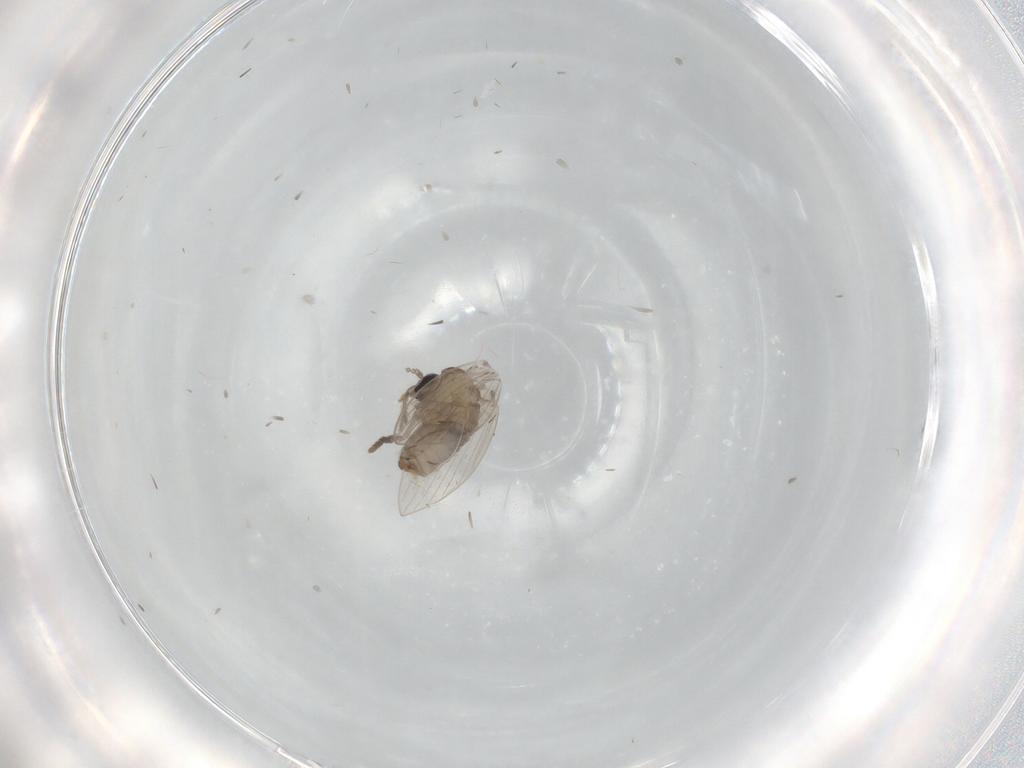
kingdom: Animalia
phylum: Arthropoda
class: Insecta
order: Diptera
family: Psychodidae
